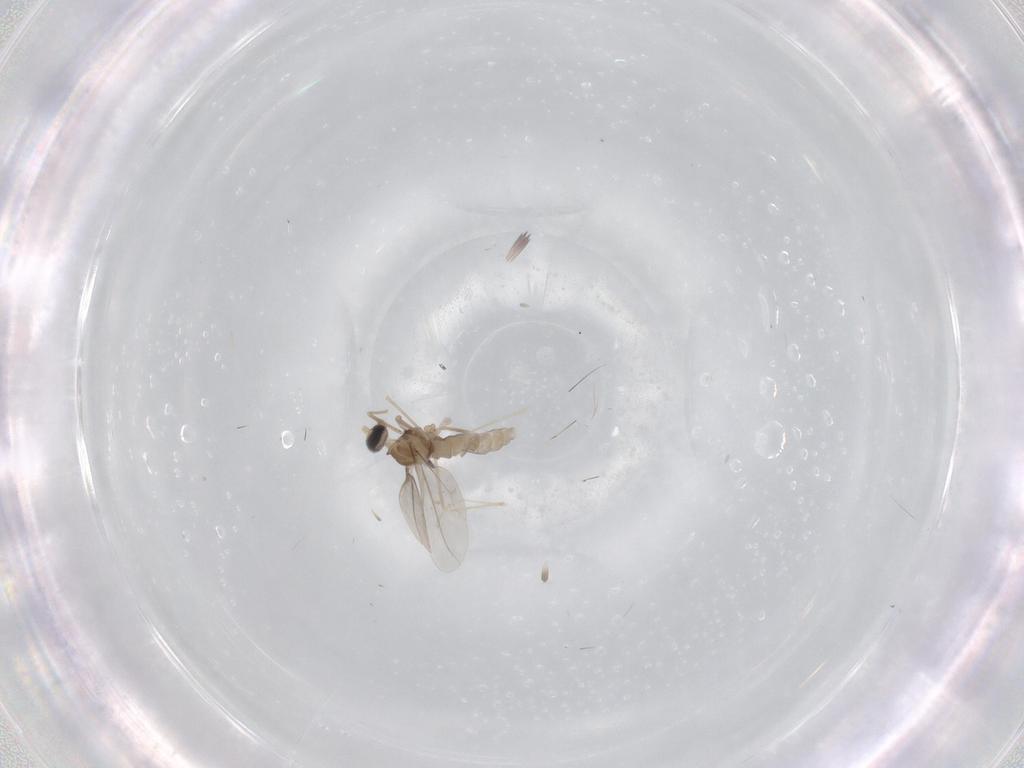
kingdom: Animalia
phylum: Arthropoda
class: Insecta
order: Diptera
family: Cecidomyiidae
